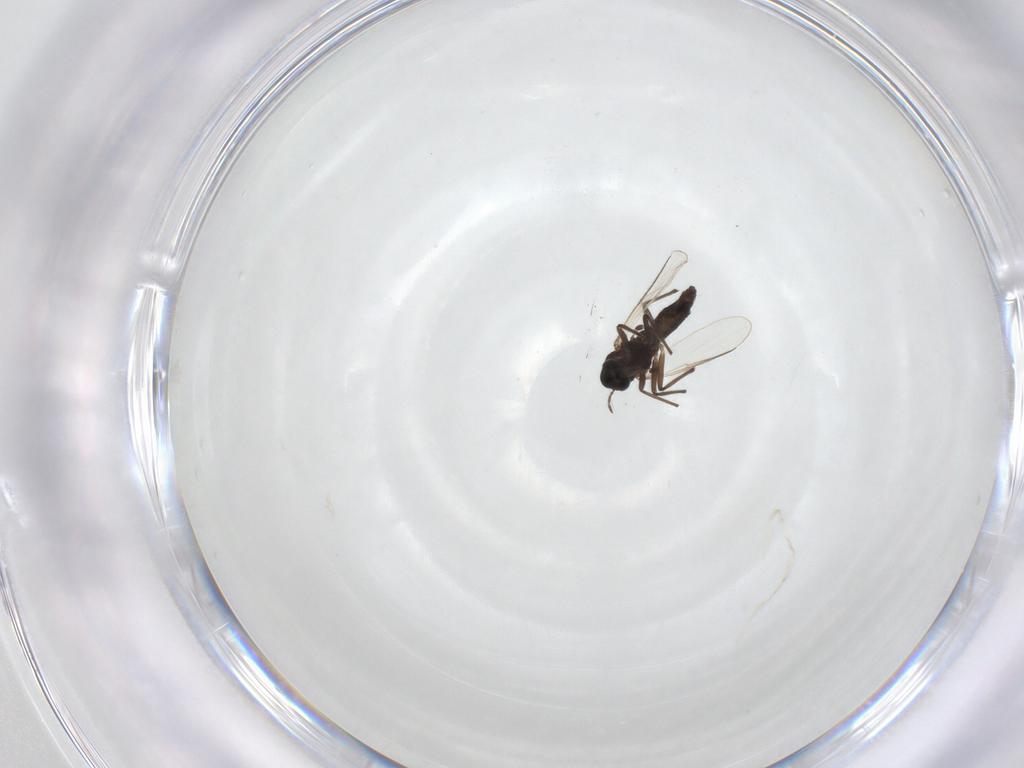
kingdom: Animalia
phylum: Arthropoda
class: Insecta
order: Diptera
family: Chironomidae
